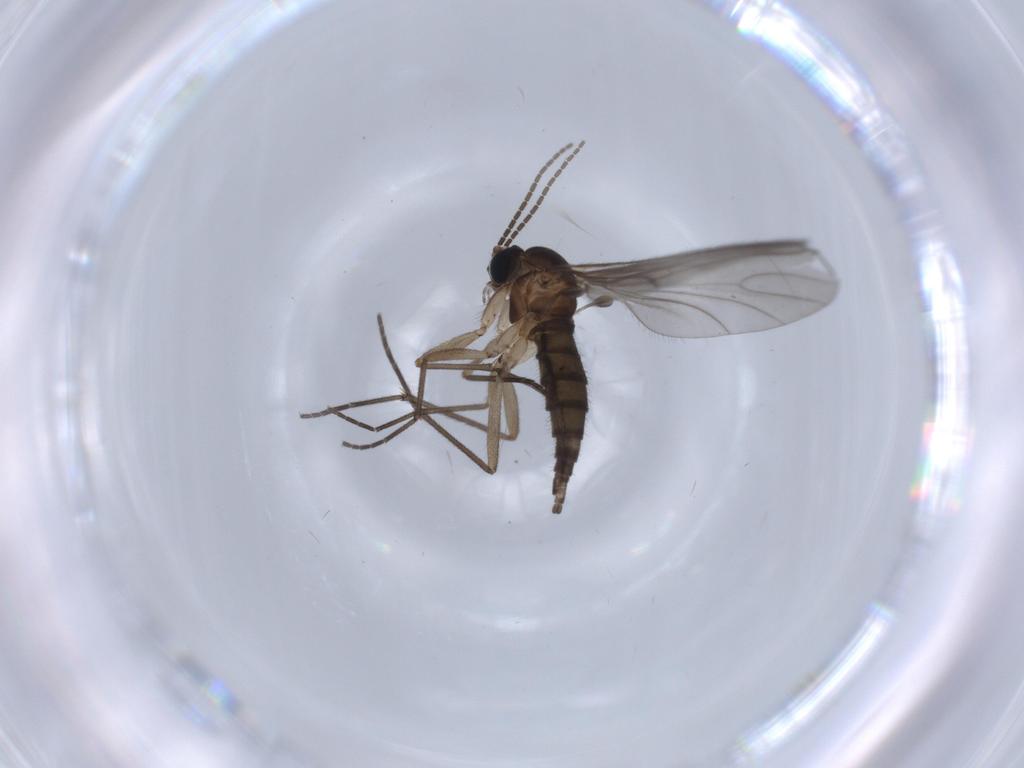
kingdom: Animalia
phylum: Arthropoda
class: Insecta
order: Diptera
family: Sciaridae
